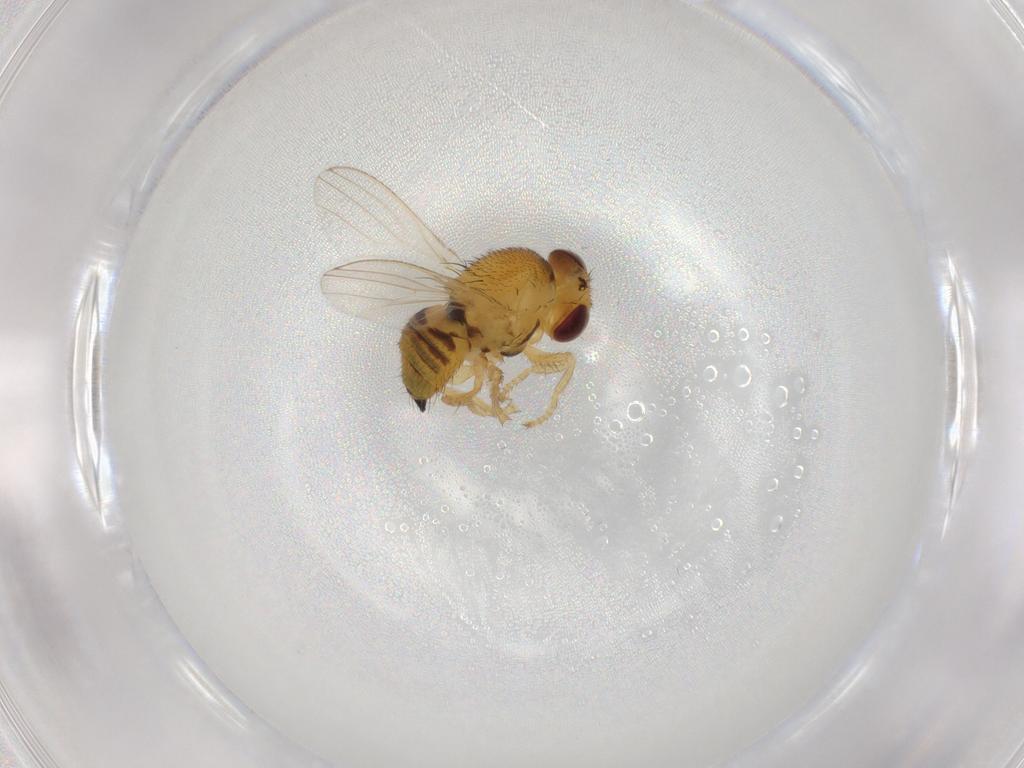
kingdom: Animalia
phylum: Arthropoda
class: Insecta
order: Diptera
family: Fergusoninidae
